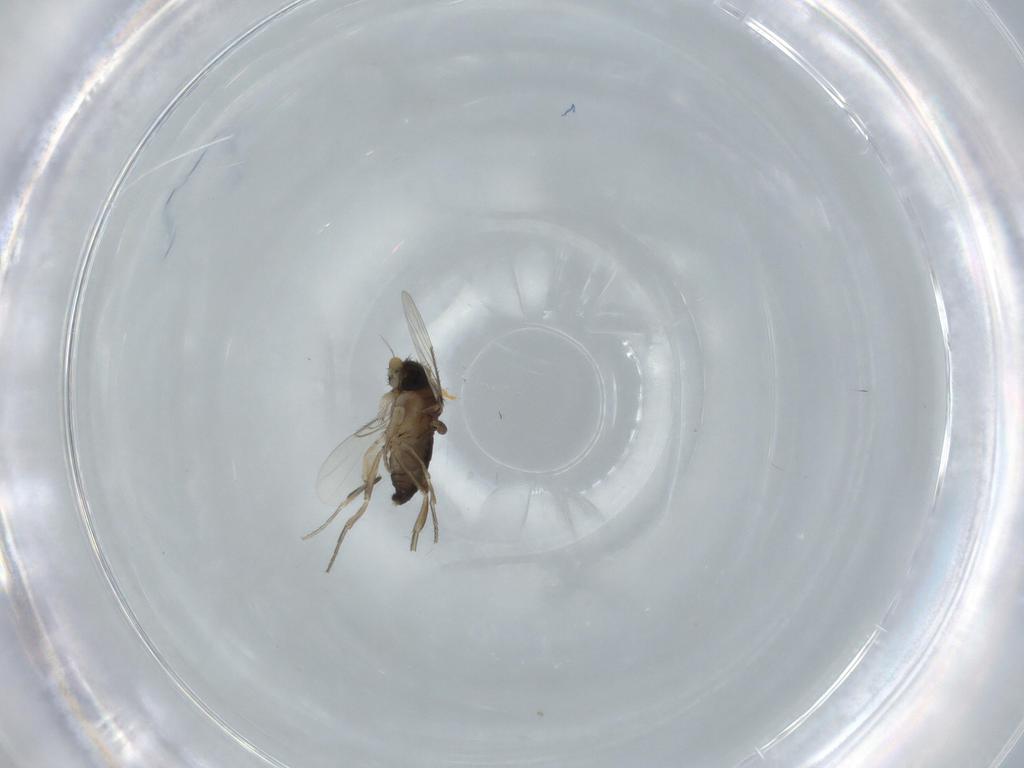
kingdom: Animalia
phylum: Arthropoda
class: Insecta
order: Diptera
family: Phoridae
